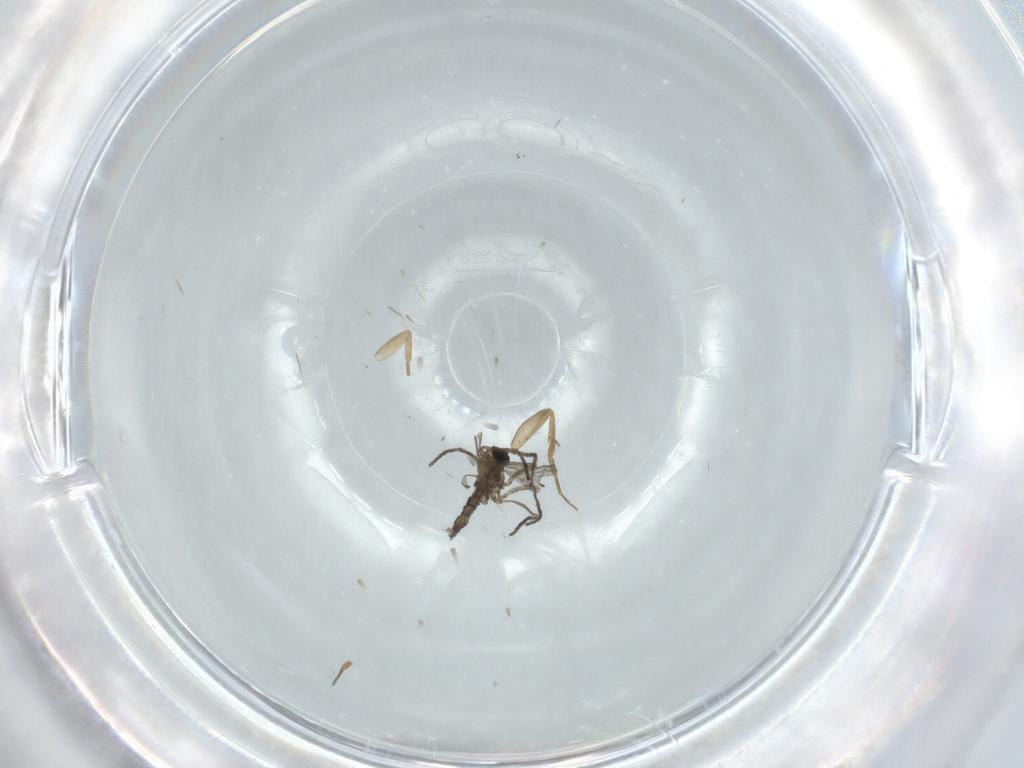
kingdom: Animalia
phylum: Arthropoda
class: Insecta
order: Diptera
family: Sciaridae
